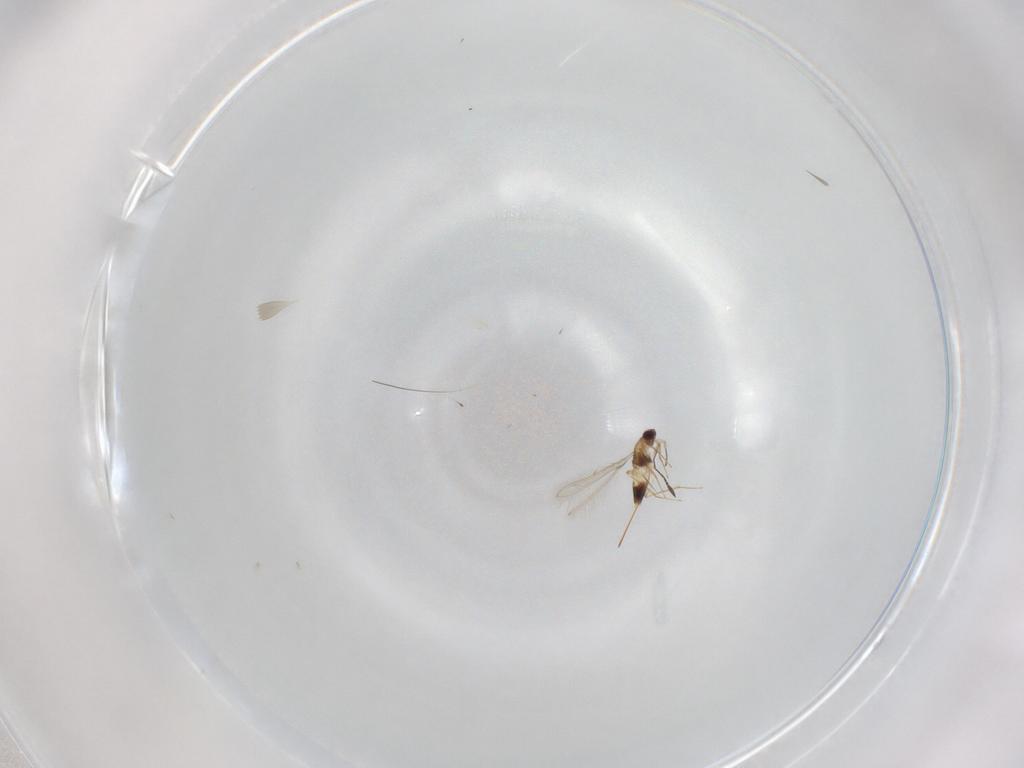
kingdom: Animalia
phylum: Arthropoda
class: Insecta
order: Hymenoptera
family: Mymaridae
